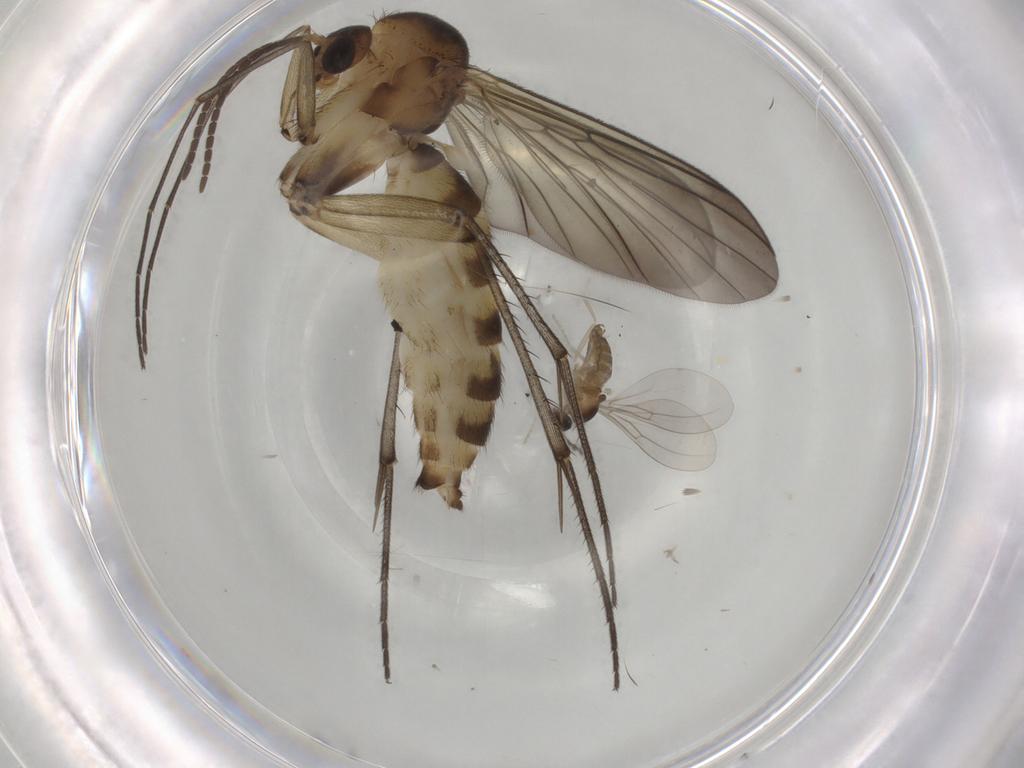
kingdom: Animalia
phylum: Arthropoda
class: Insecta
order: Diptera
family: Mycetophilidae
